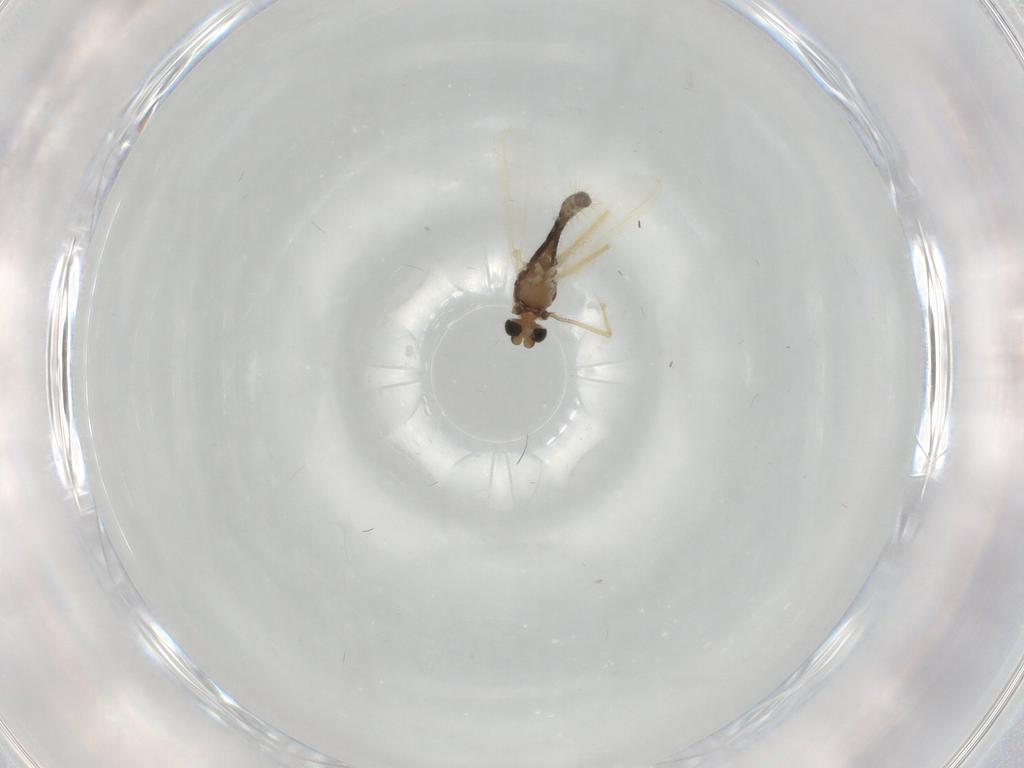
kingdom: Animalia
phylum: Arthropoda
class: Insecta
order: Diptera
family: Chironomidae
